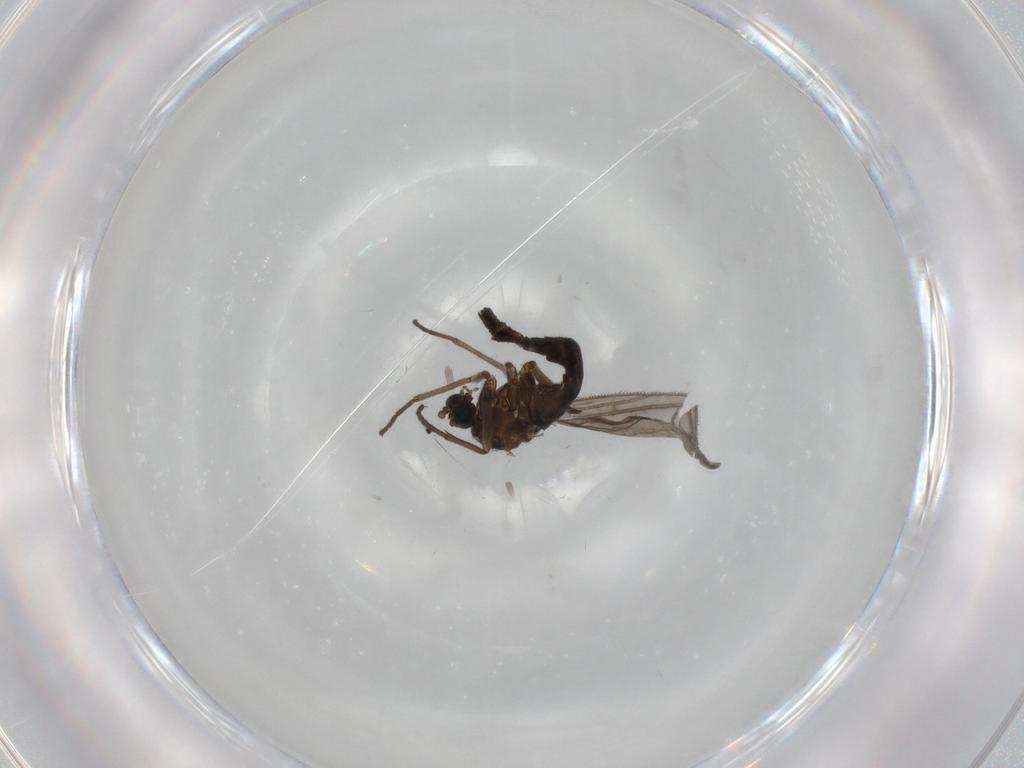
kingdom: Animalia
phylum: Arthropoda
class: Insecta
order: Diptera
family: Sciaridae
